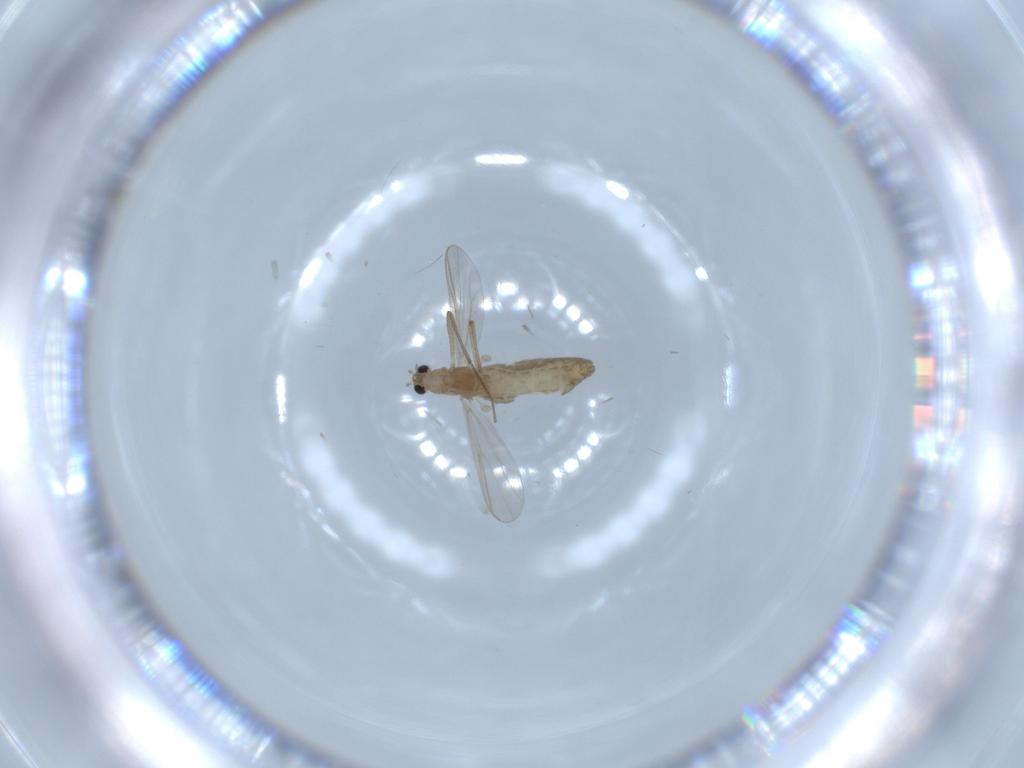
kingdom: Animalia
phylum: Arthropoda
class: Insecta
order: Diptera
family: Chironomidae
